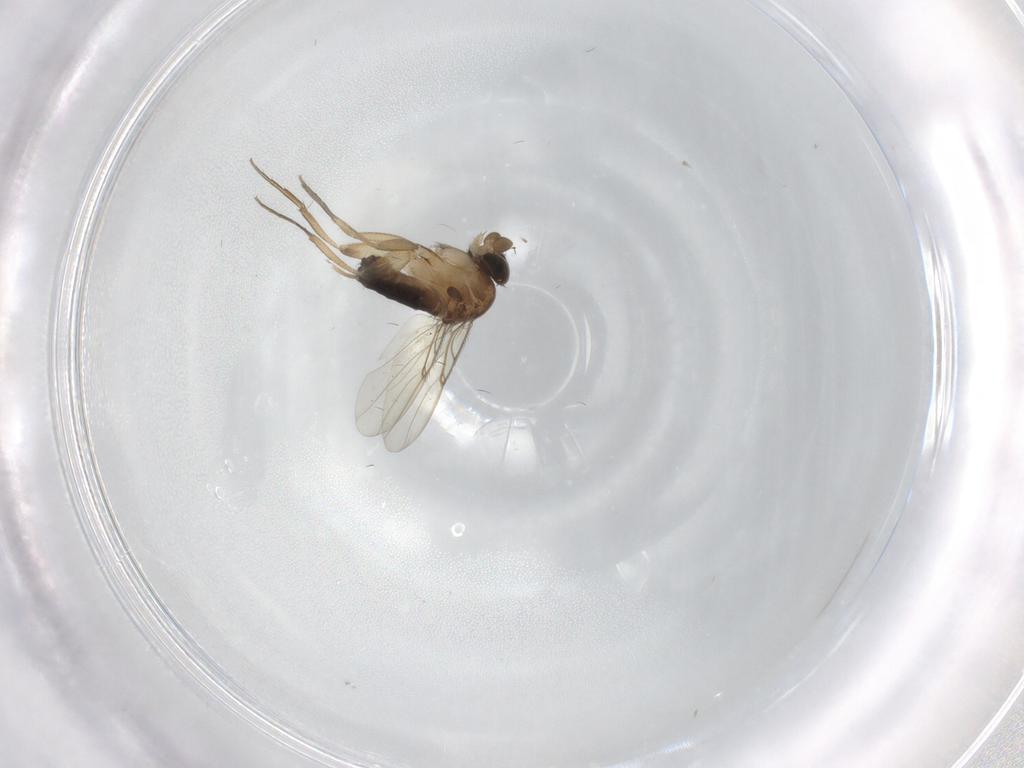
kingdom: Animalia
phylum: Arthropoda
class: Insecta
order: Diptera
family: Phoridae
